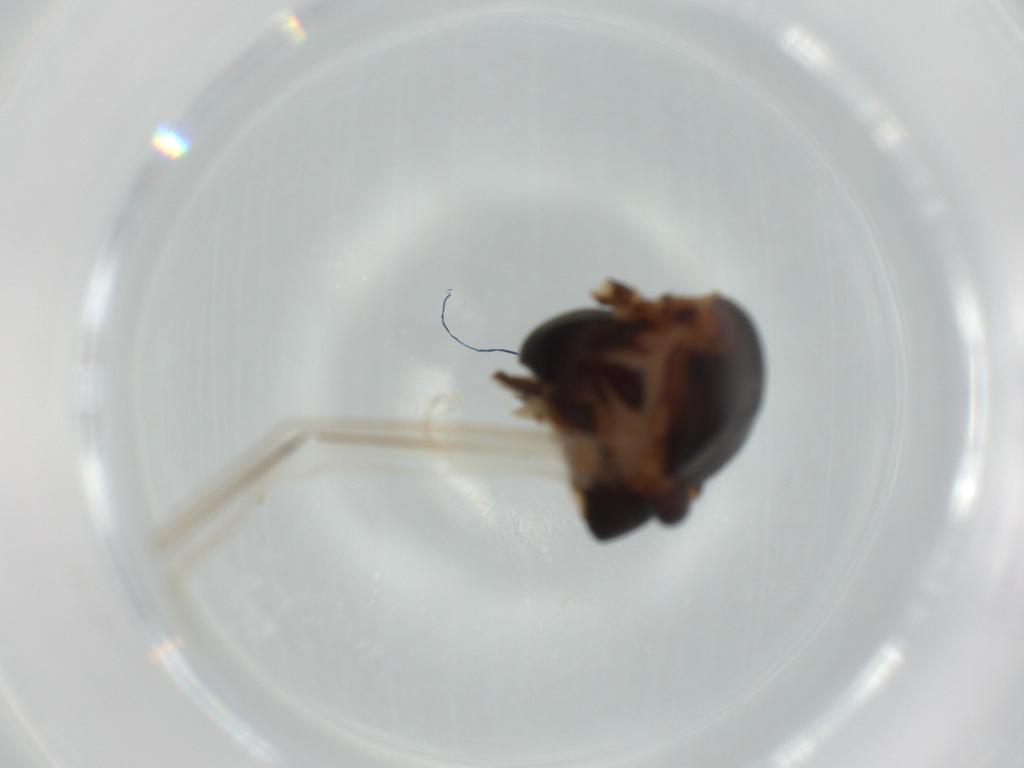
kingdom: Animalia
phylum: Arthropoda
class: Insecta
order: Diptera
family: Chironomidae
